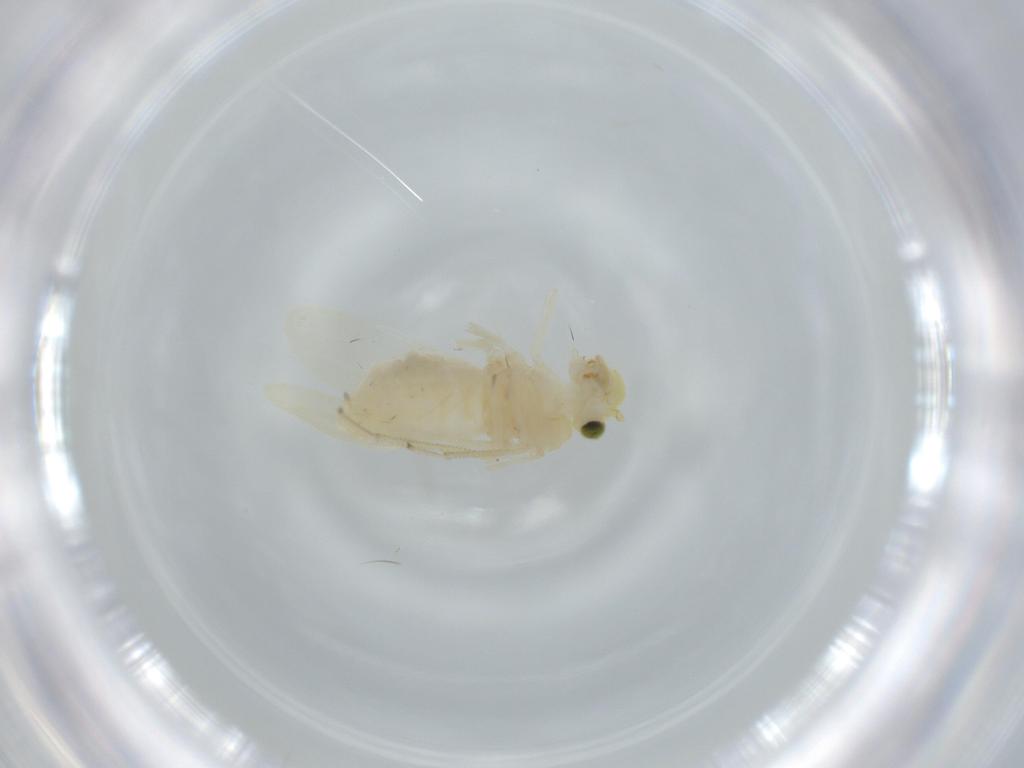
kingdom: Animalia
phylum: Arthropoda
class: Insecta
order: Psocodea
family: Caeciliusidae
